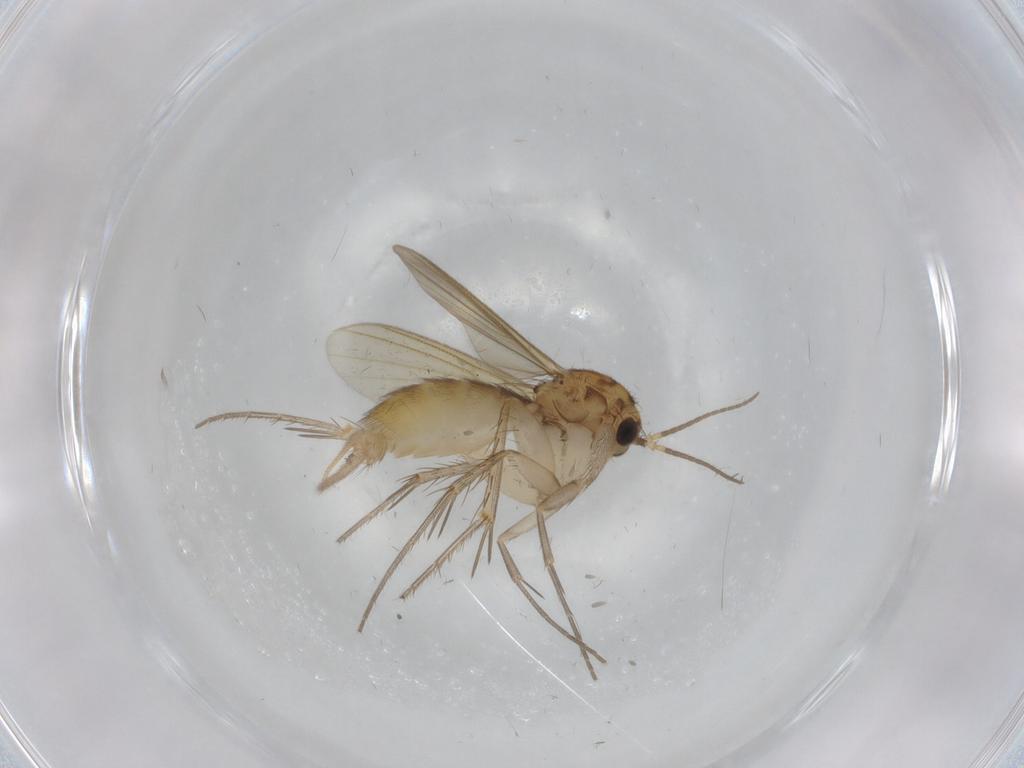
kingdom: Animalia
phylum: Arthropoda
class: Insecta
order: Diptera
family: Mycetophilidae
